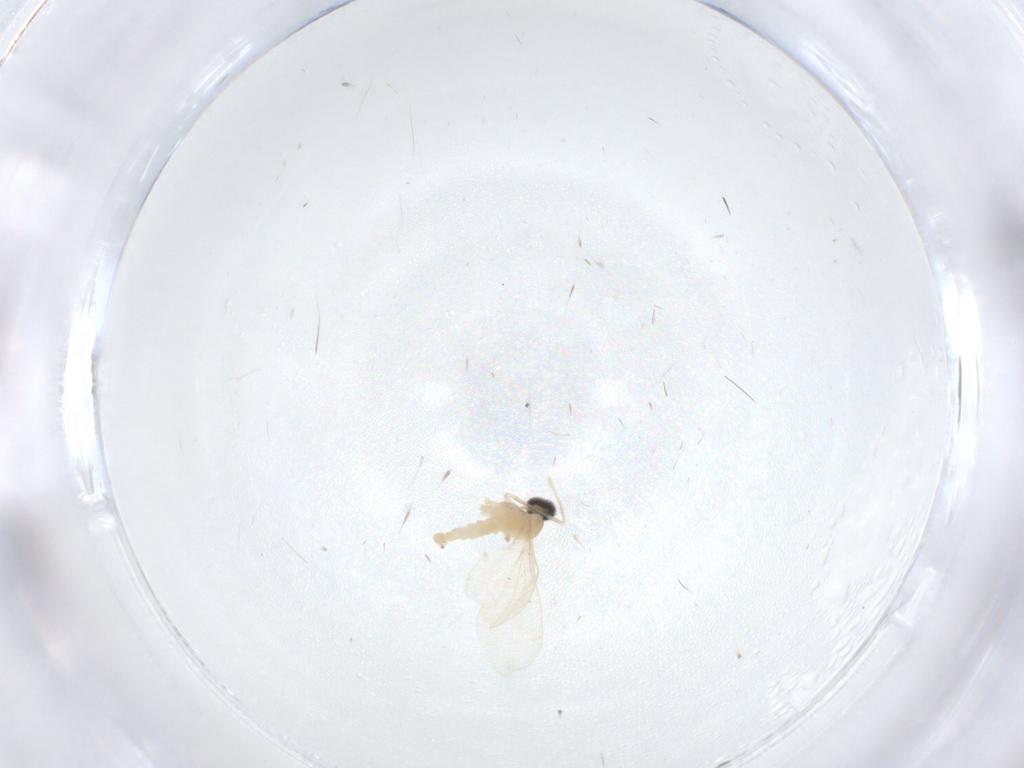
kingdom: Animalia
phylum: Arthropoda
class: Insecta
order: Diptera
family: Cecidomyiidae
